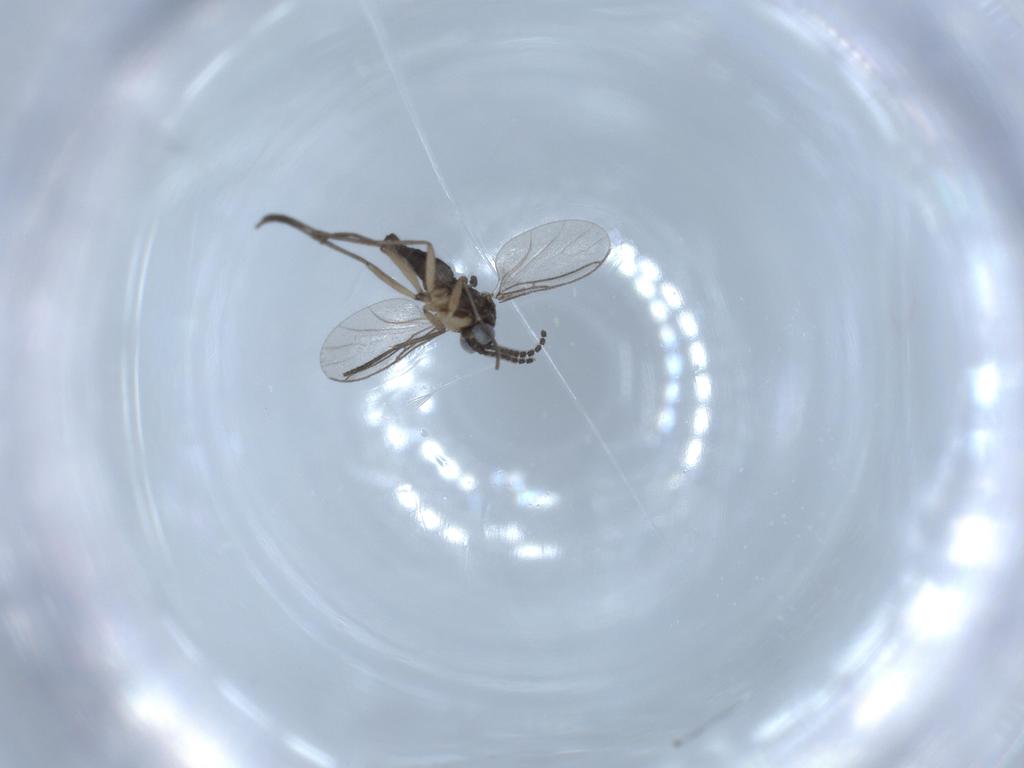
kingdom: Animalia
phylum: Arthropoda
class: Insecta
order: Diptera
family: Sciaridae
